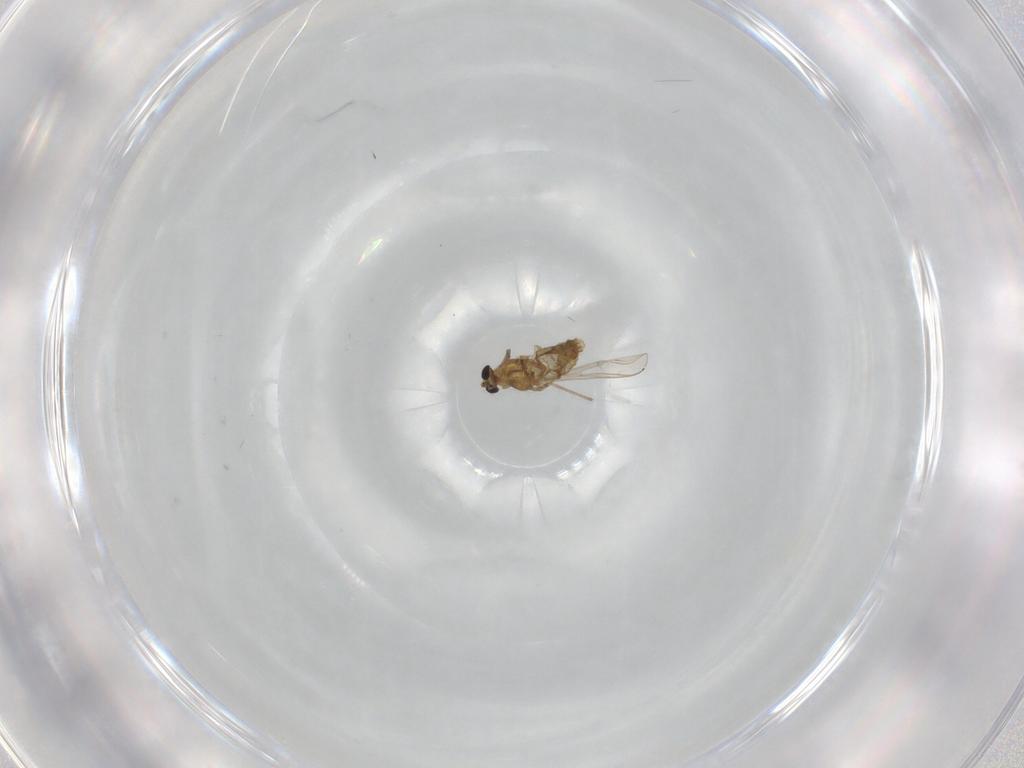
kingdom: Animalia
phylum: Arthropoda
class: Insecta
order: Diptera
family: Chironomidae
